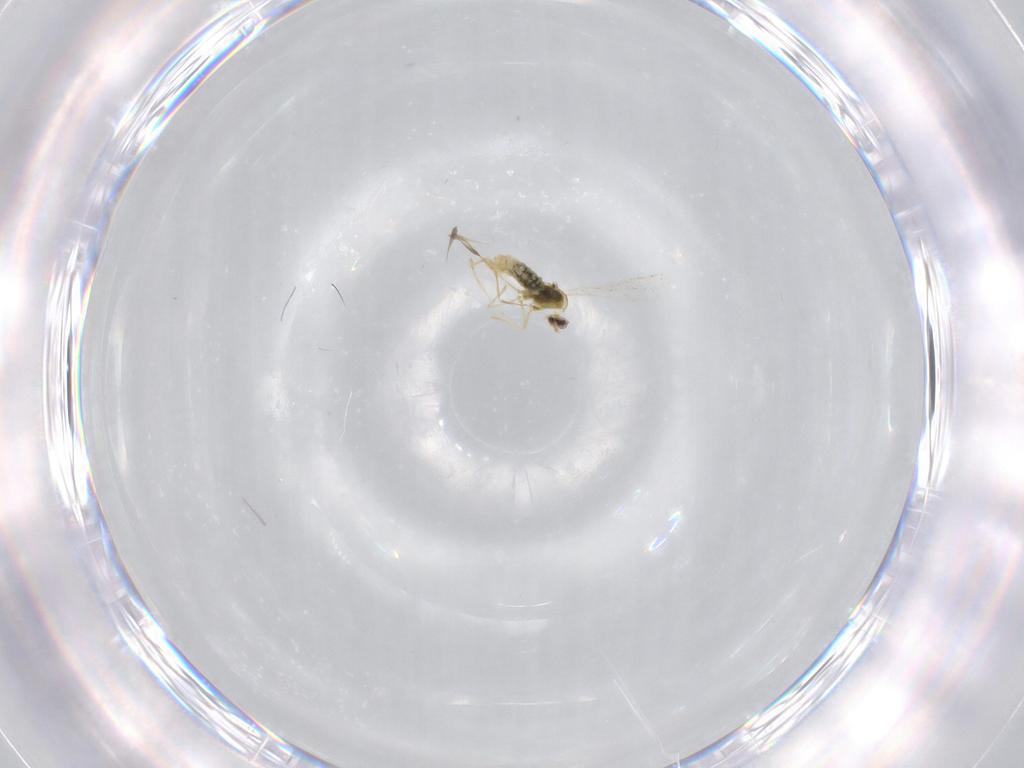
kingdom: Animalia
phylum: Arthropoda
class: Insecta
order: Diptera
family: Cecidomyiidae
